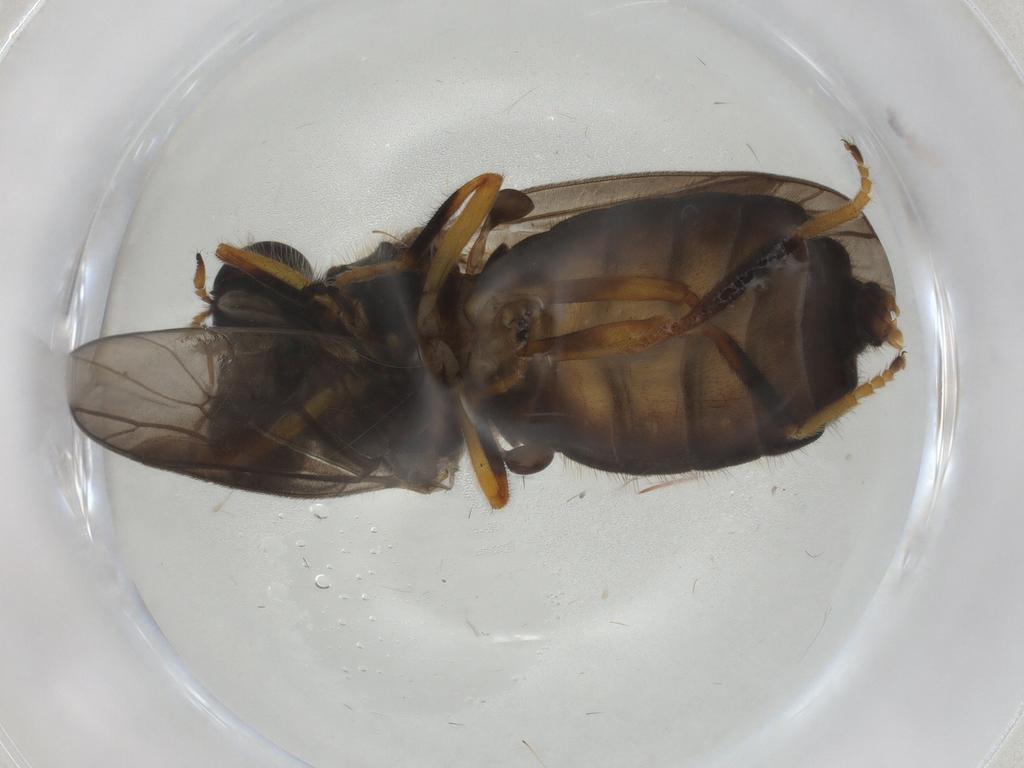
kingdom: Animalia
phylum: Arthropoda
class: Insecta
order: Diptera
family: Stratiomyidae
